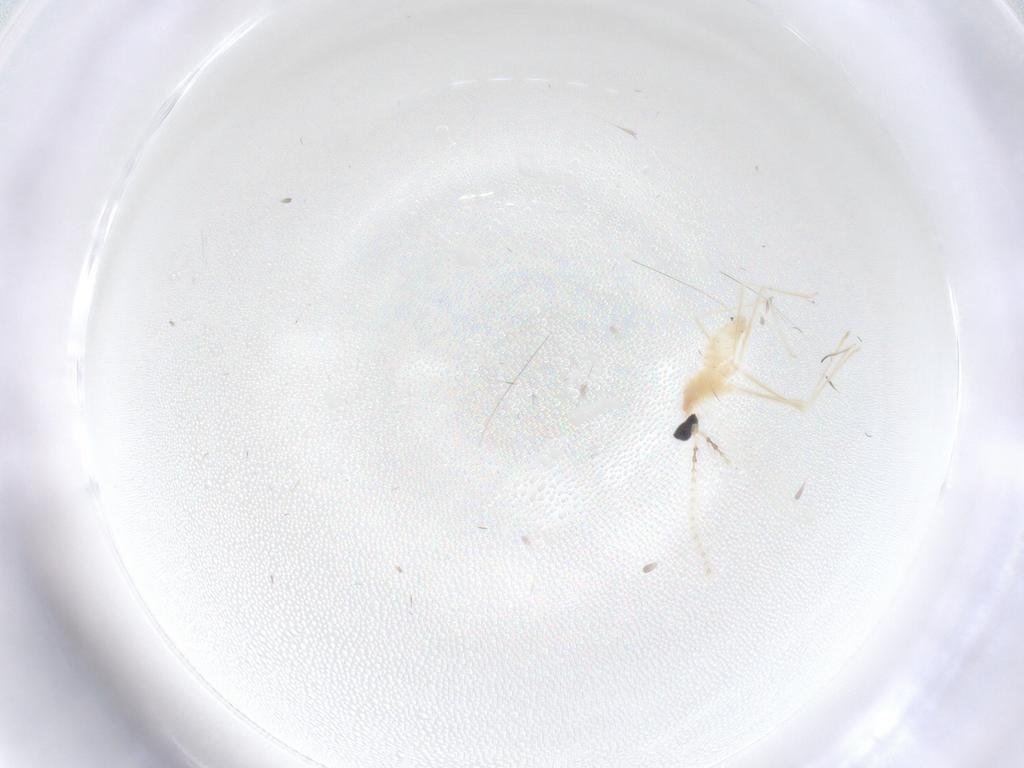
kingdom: Animalia
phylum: Arthropoda
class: Insecta
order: Diptera
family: Cecidomyiidae
